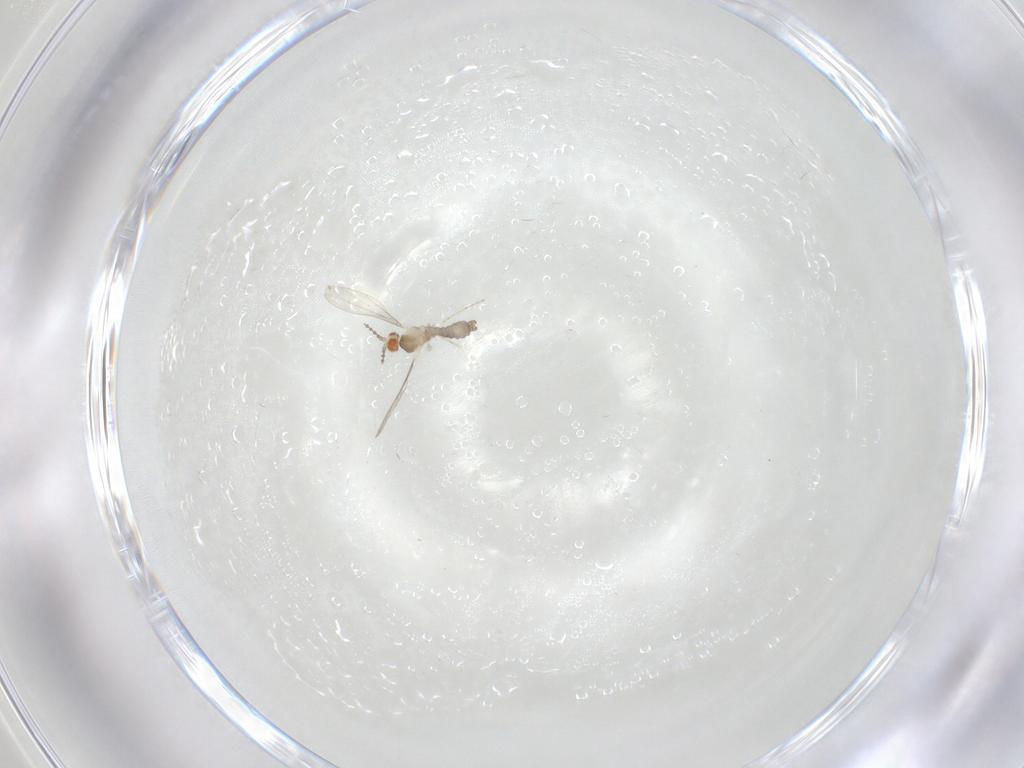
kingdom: Animalia
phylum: Arthropoda
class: Insecta
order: Diptera
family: Cecidomyiidae
